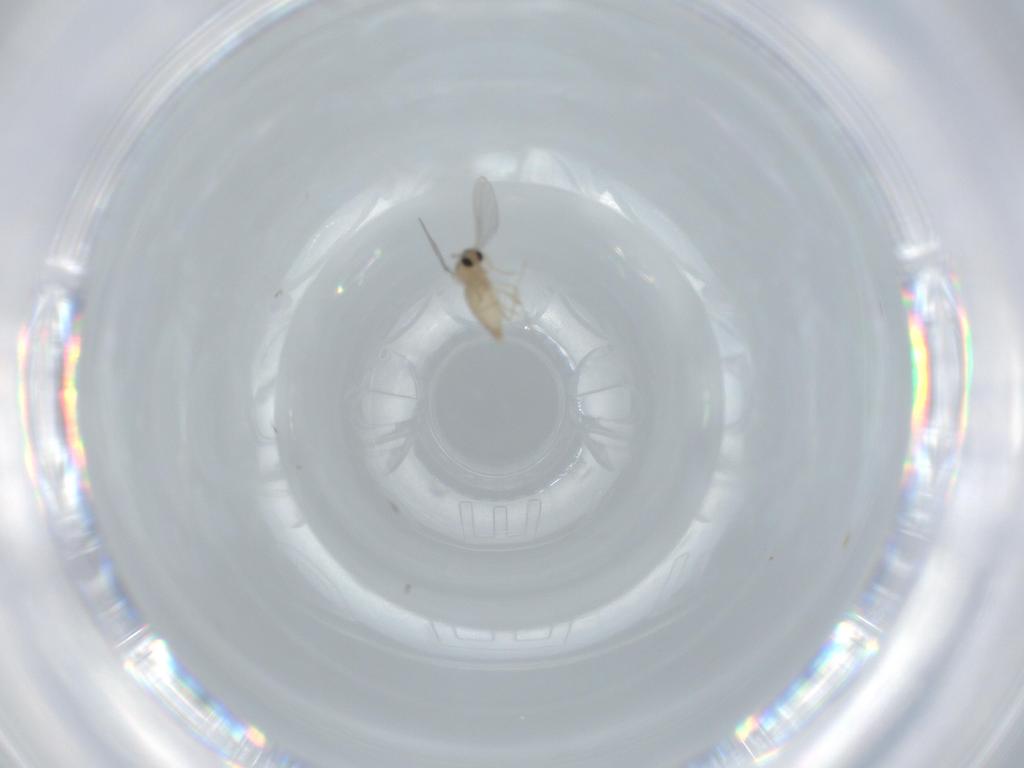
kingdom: Animalia
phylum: Arthropoda
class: Insecta
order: Diptera
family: Cecidomyiidae
